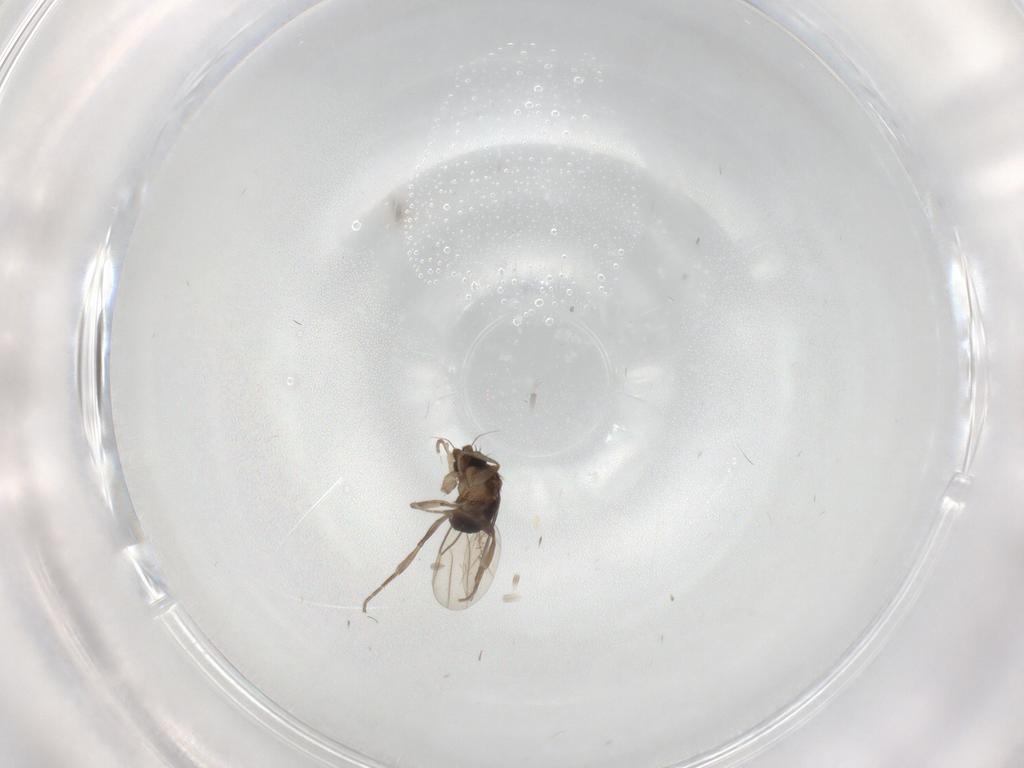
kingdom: Animalia
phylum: Arthropoda
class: Insecta
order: Diptera
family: Phoridae
